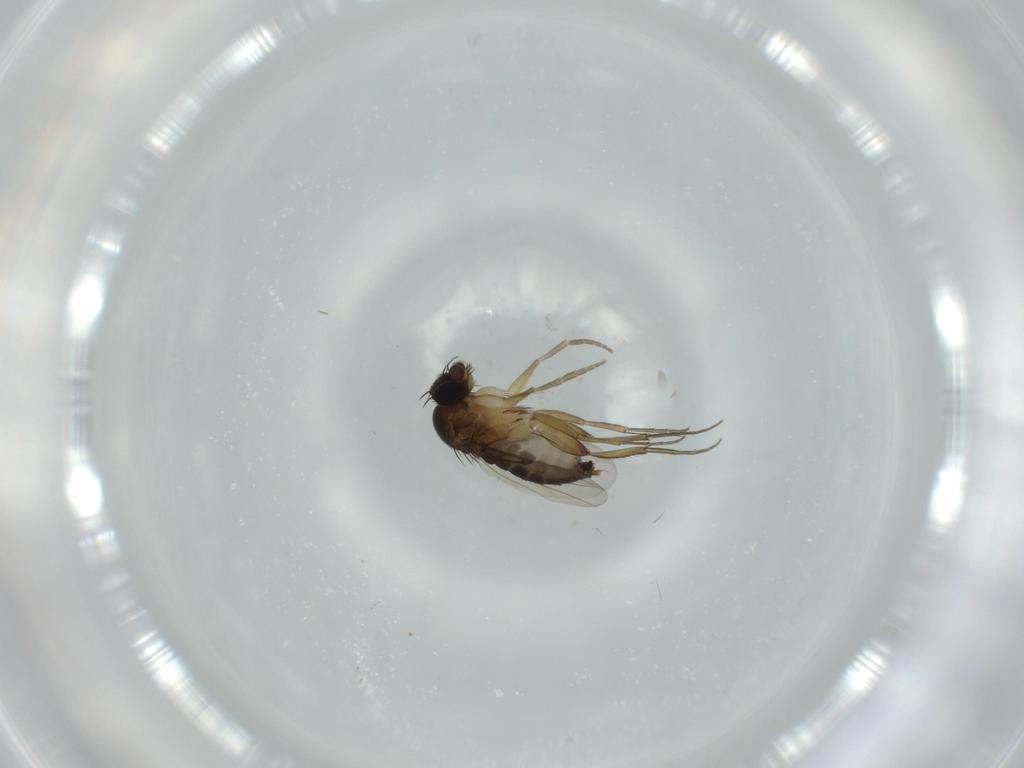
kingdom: Animalia
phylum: Arthropoda
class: Insecta
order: Diptera
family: Phoridae
